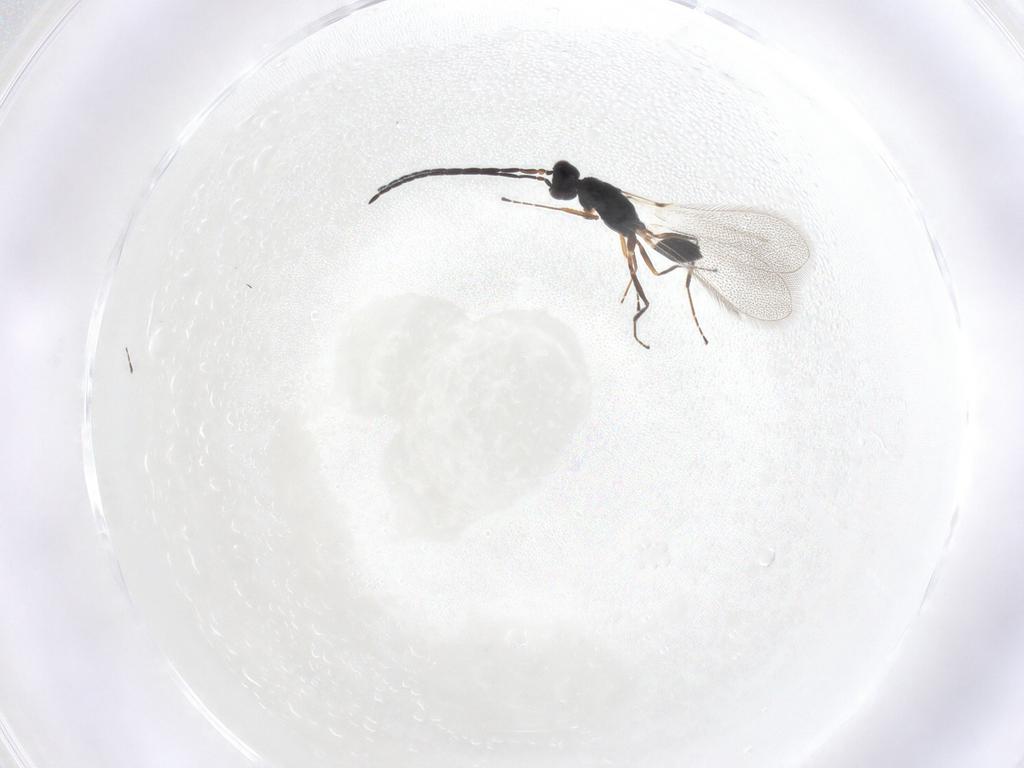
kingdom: Animalia
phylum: Arthropoda
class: Insecta
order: Hymenoptera
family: Mymaridae
